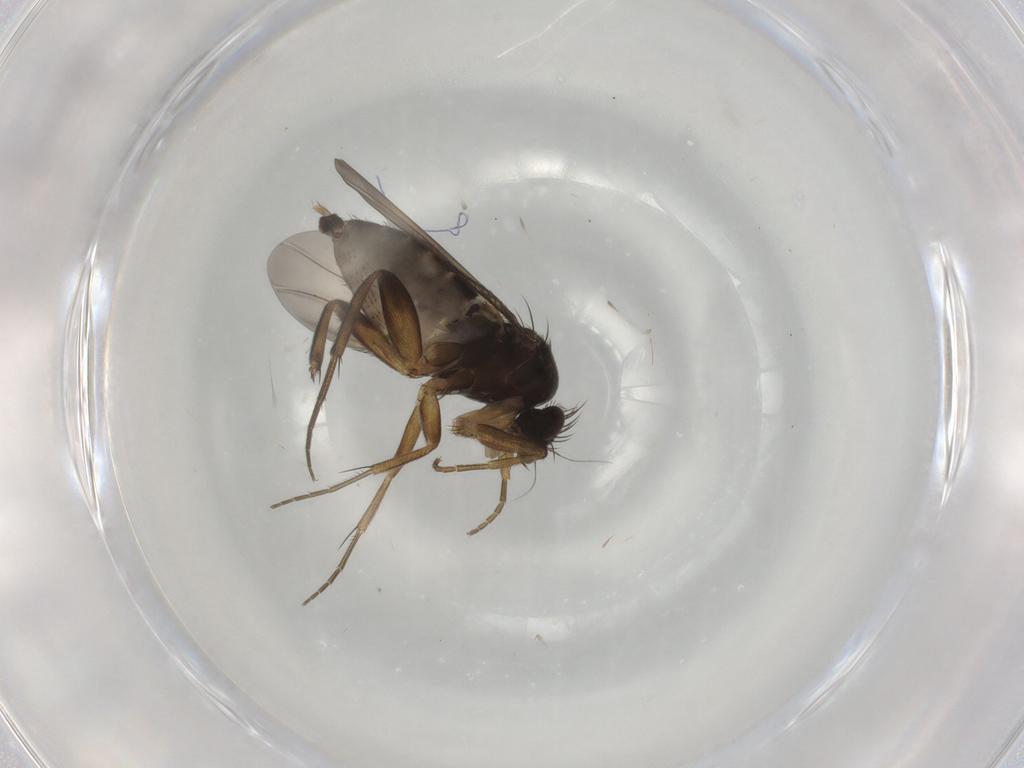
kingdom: Animalia
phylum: Arthropoda
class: Insecta
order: Diptera
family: Phoridae
